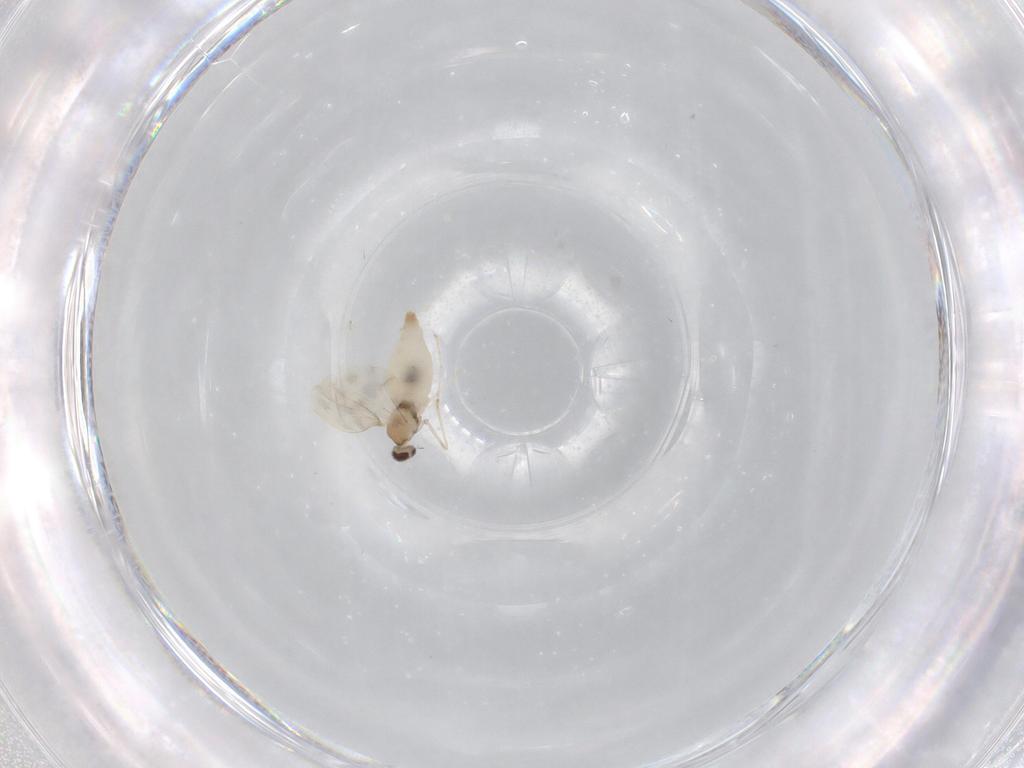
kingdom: Animalia
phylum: Arthropoda
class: Insecta
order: Diptera
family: Cecidomyiidae
